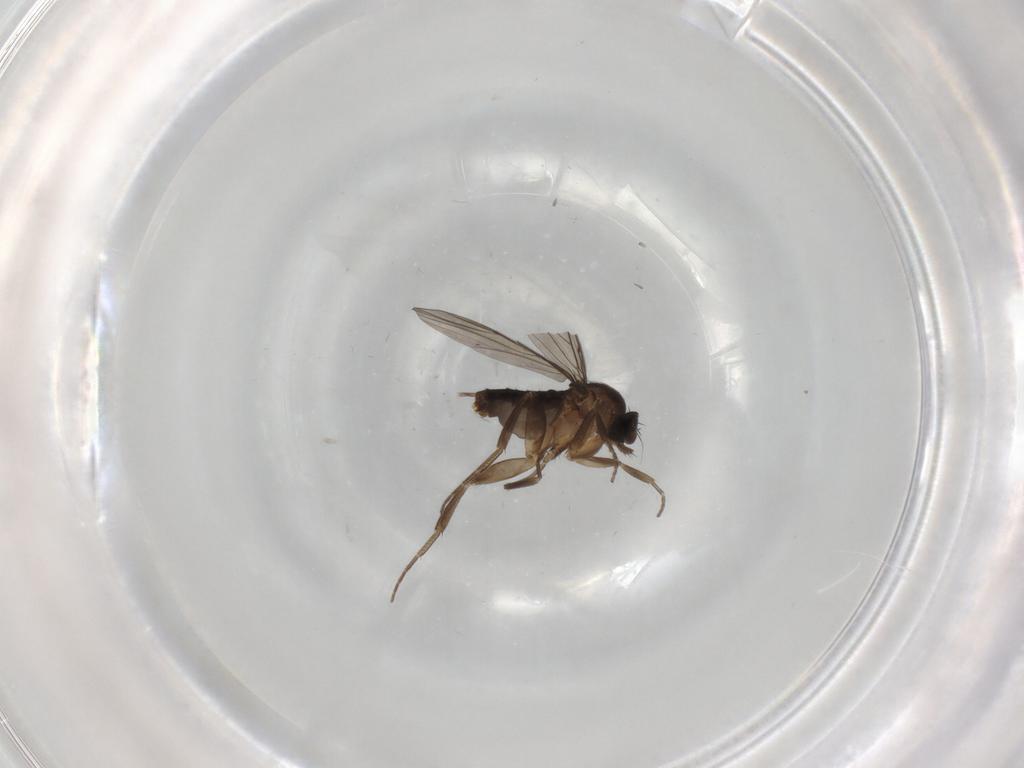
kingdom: Animalia
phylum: Arthropoda
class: Insecta
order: Diptera
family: Phoridae
